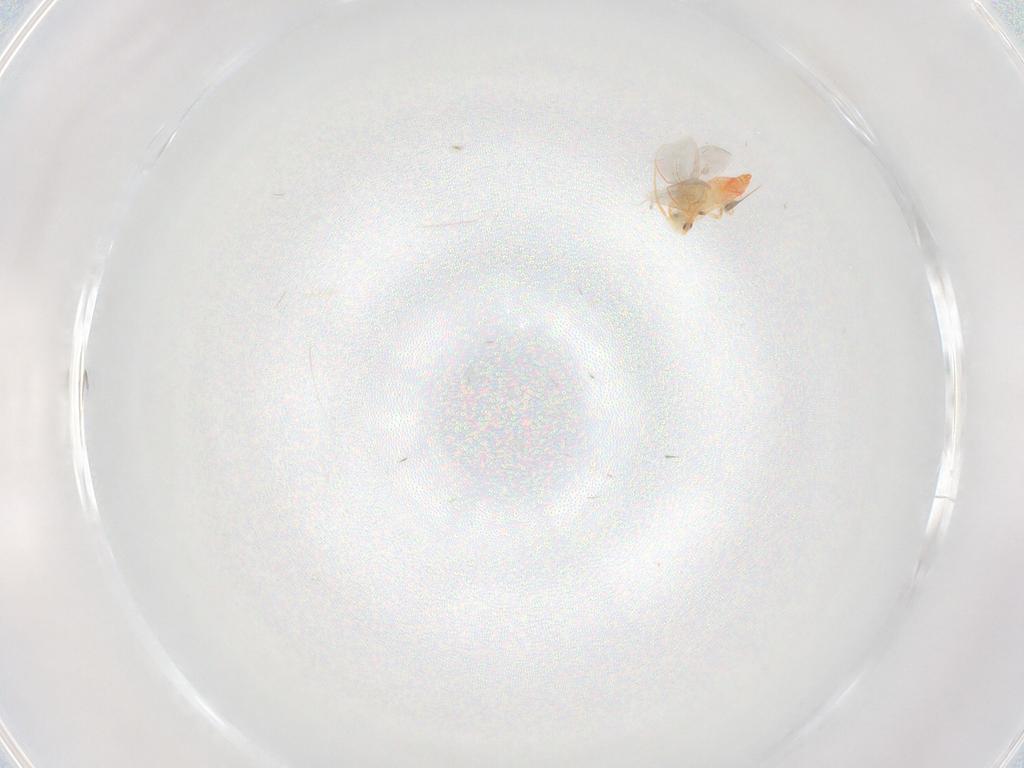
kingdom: Animalia
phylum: Arthropoda
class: Insecta
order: Hemiptera
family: Aleyrodidae
